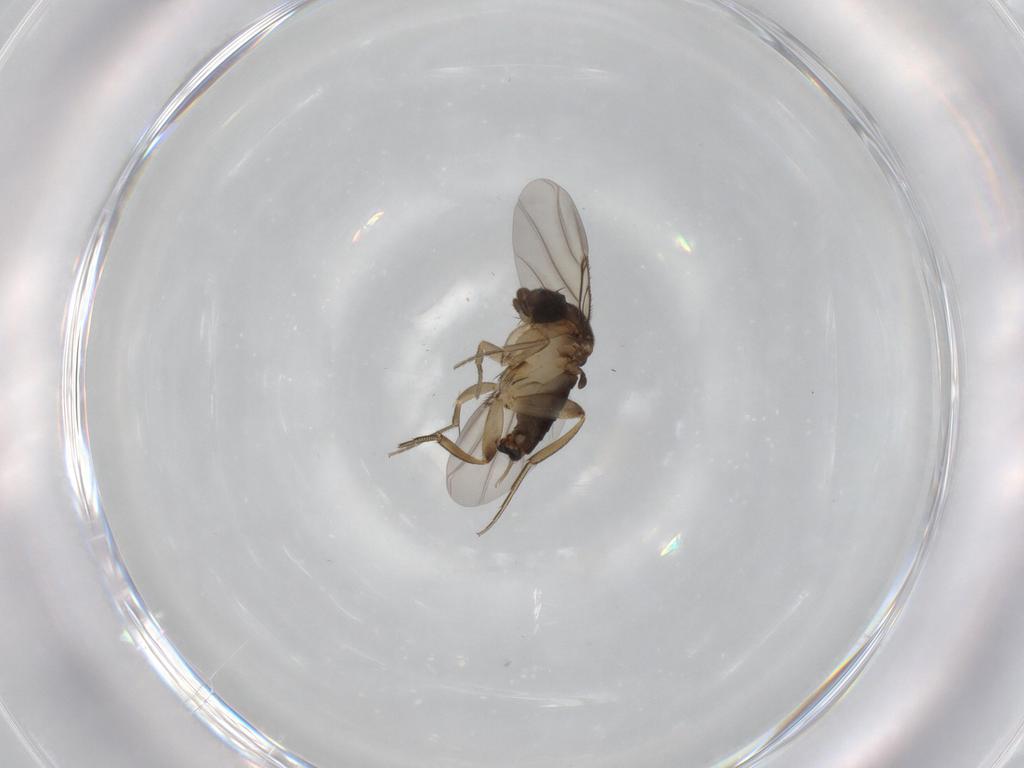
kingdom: Animalia
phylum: Arthropoda
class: Insecta
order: Diptera
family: Phoridae
